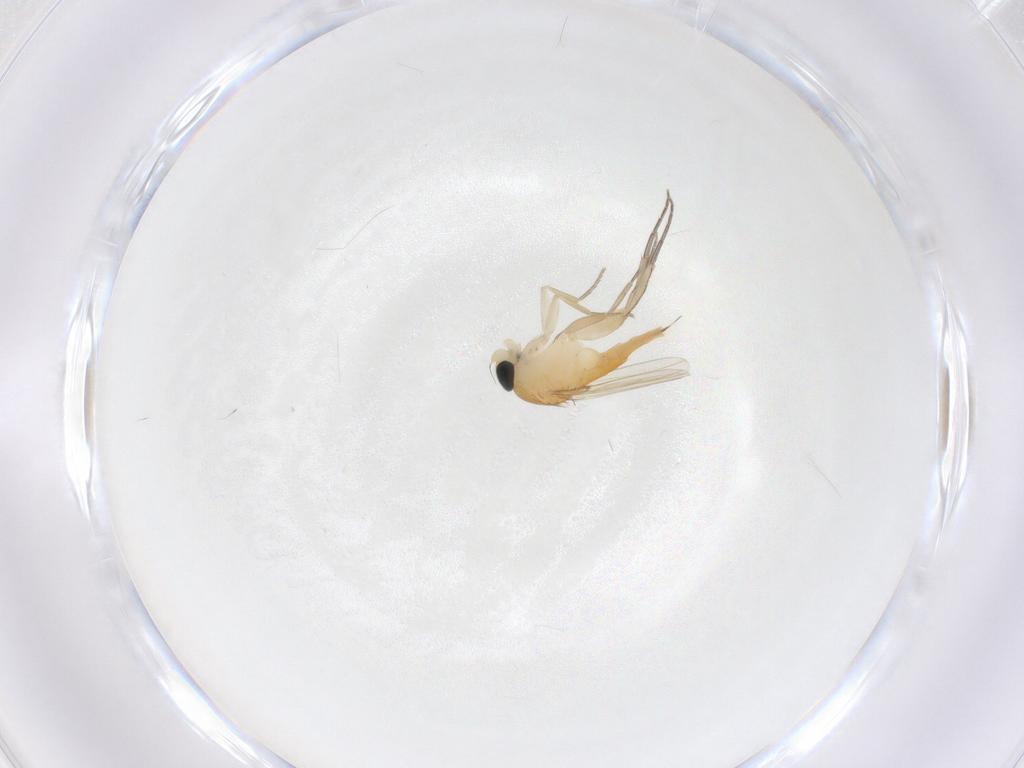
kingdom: Animalia
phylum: Arthropoda
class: Insecta
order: Diptera
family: Phoridae
